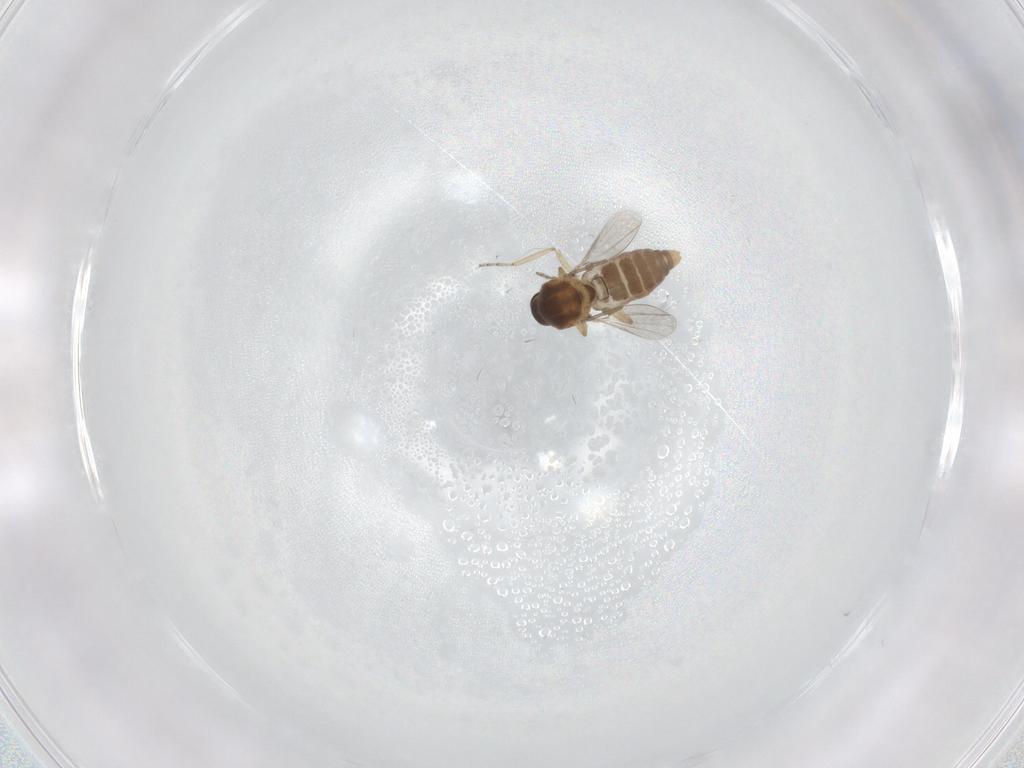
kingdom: Animalia
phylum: Arthropoda
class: Insecta
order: Diptera
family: Ceratopogonidae
